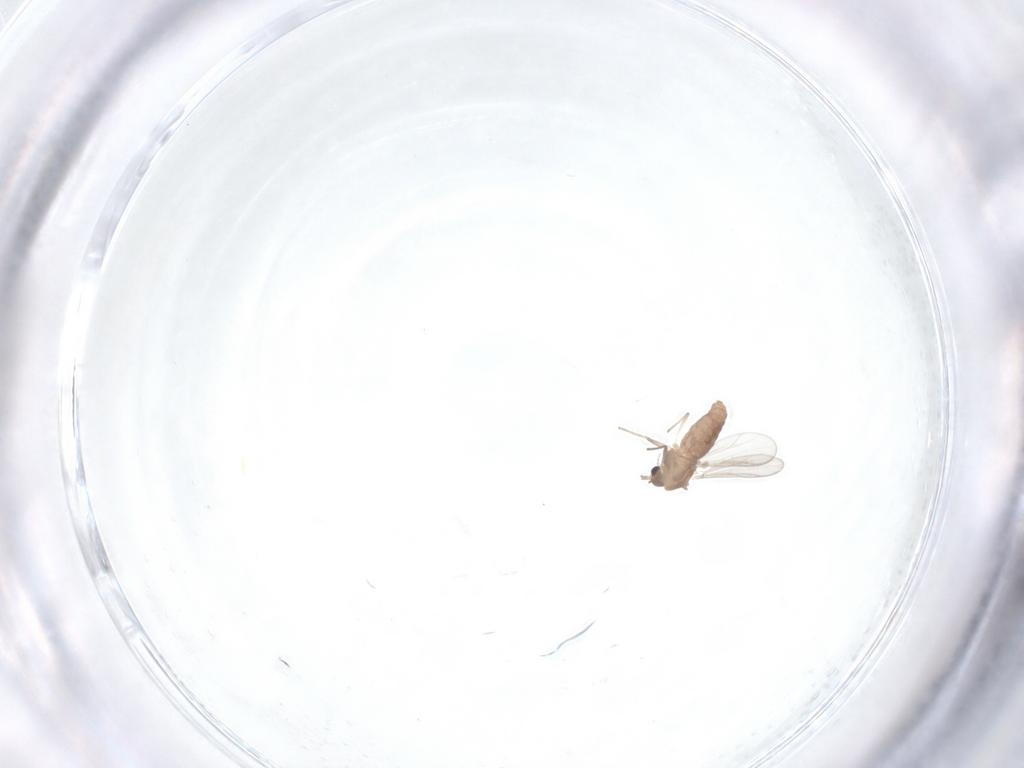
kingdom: Animalia
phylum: Arthropoda
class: Insecta
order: Diptera
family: Chironomidae
